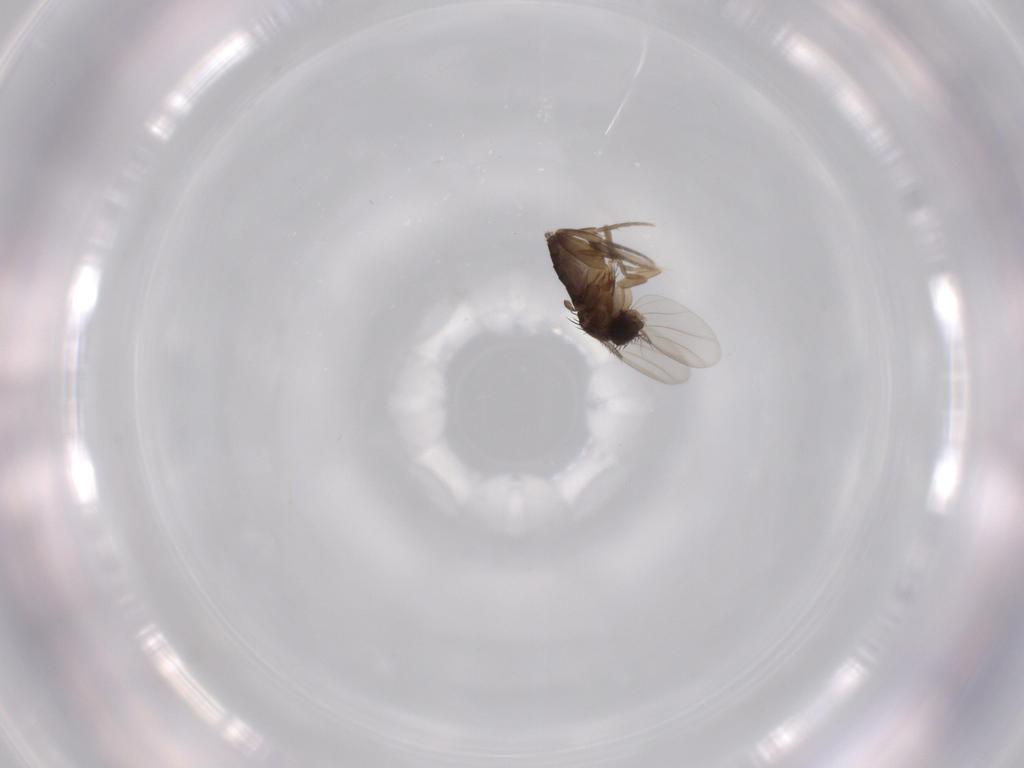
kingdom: Animalia
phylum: Arthropoda
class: Insecta
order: Diptera
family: Phoridae
